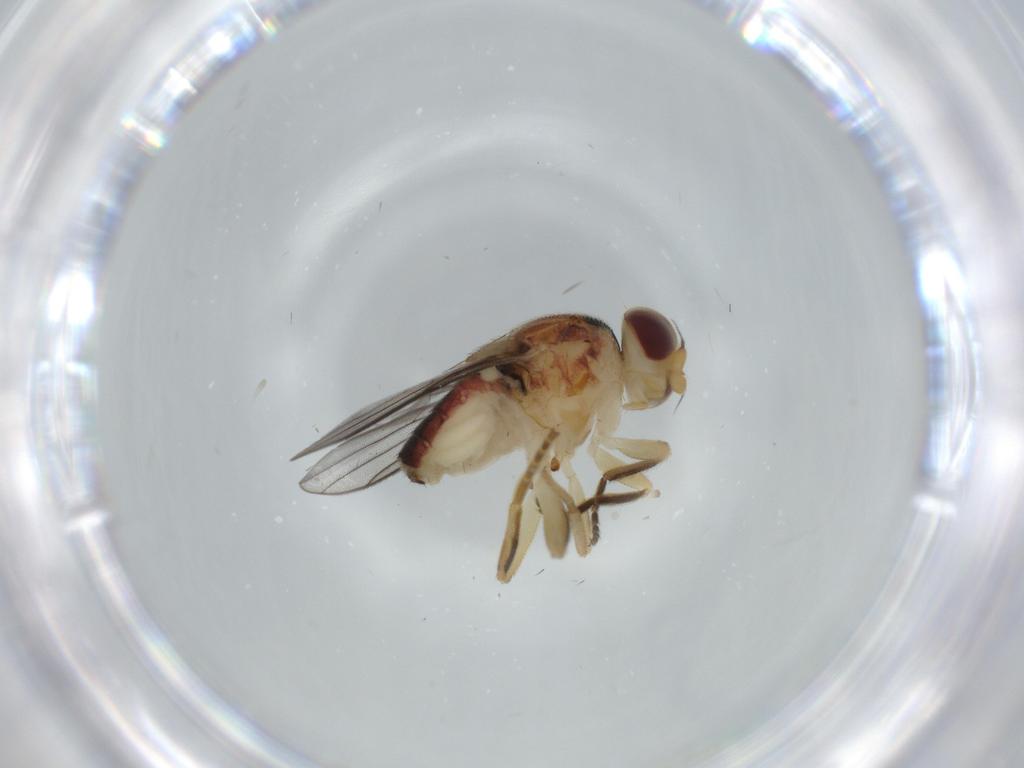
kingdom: Animalia
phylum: Arthropoda
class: Insecta
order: Diptera
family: Chloropidae
